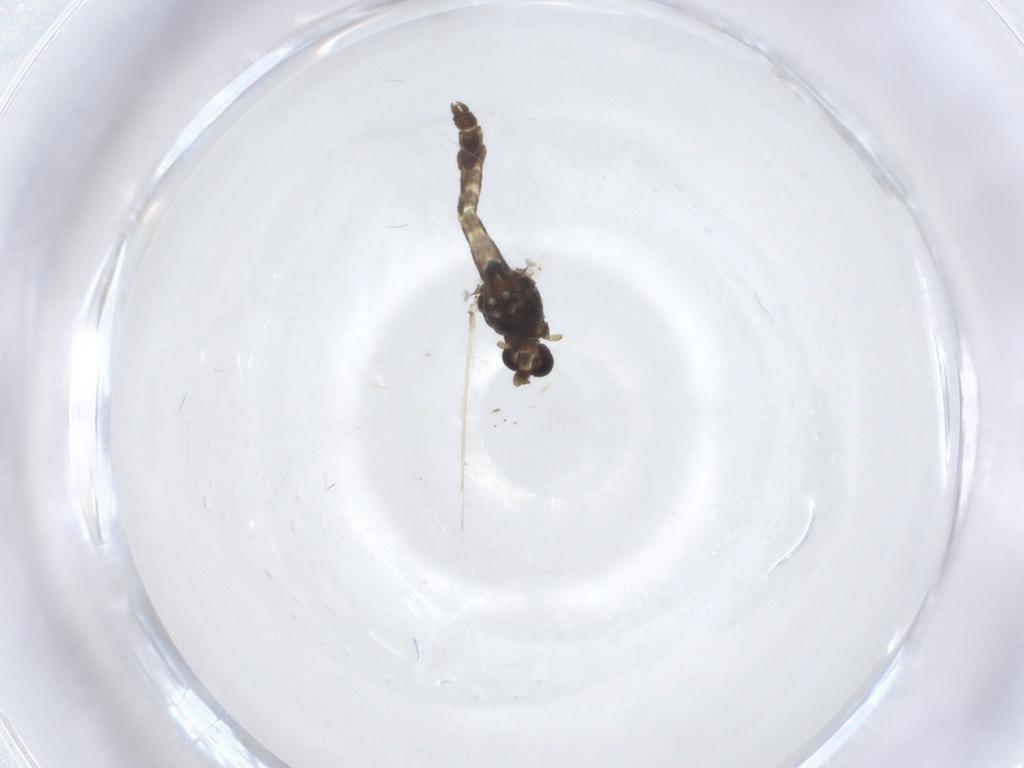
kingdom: Animalia
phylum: Arthropoda
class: Insecta
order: Diptera
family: Chironomidae
